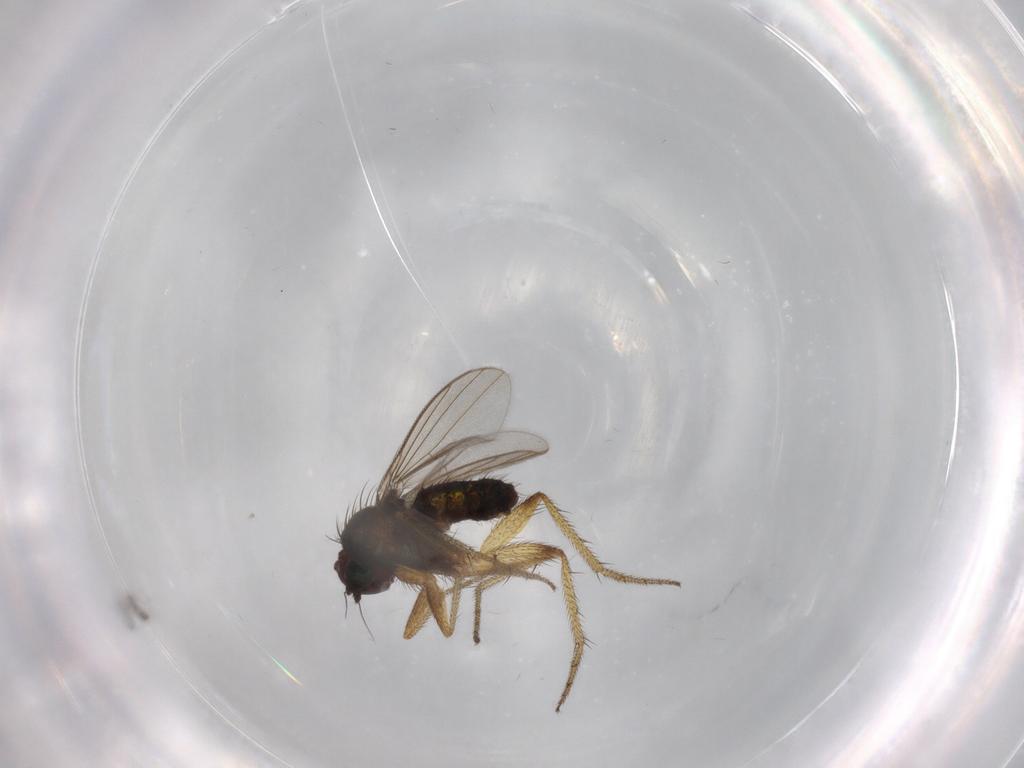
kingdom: Animalia
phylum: Arthropoda
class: Insecta
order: Diptera
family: Psychodidae
